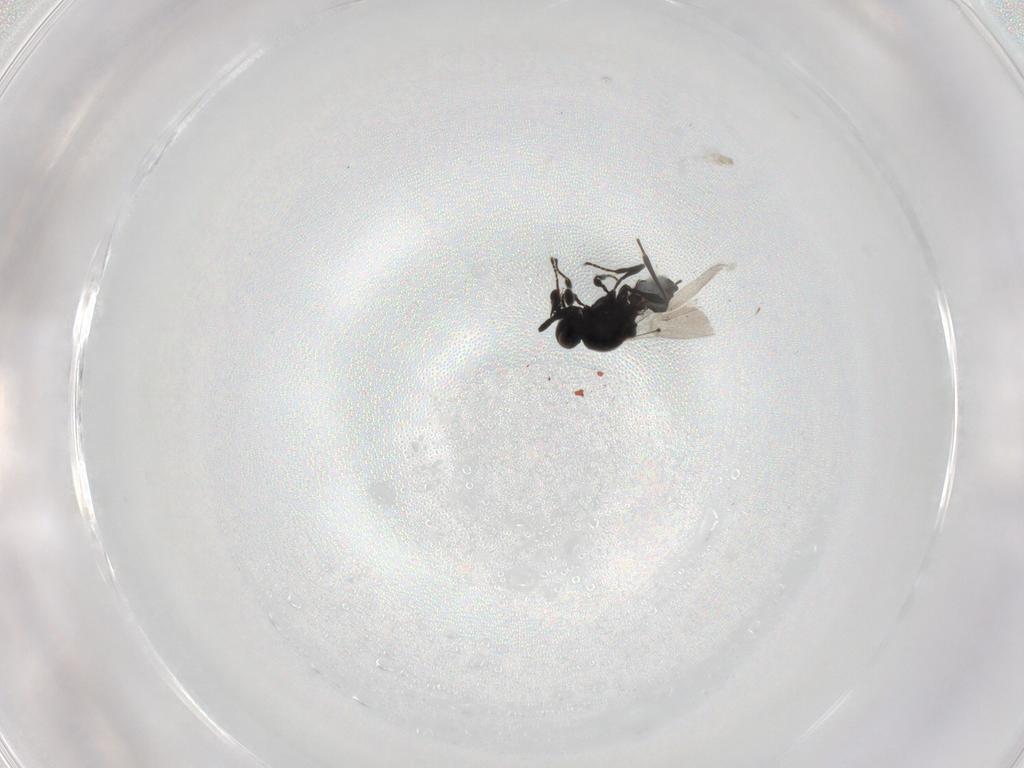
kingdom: Animalia
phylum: Arthropoda
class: Insecta
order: Hymenoptera
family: Platygastridae
